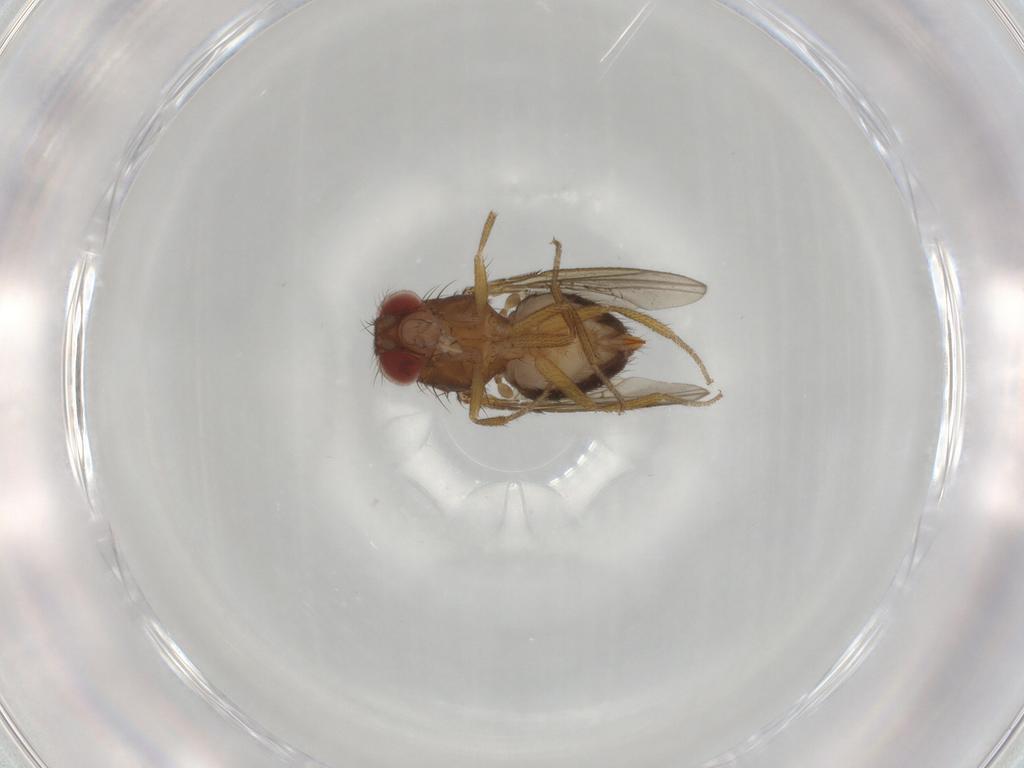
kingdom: Animalia
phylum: Arthropoda
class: Insecta
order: Diptera
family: Drosophilidae
